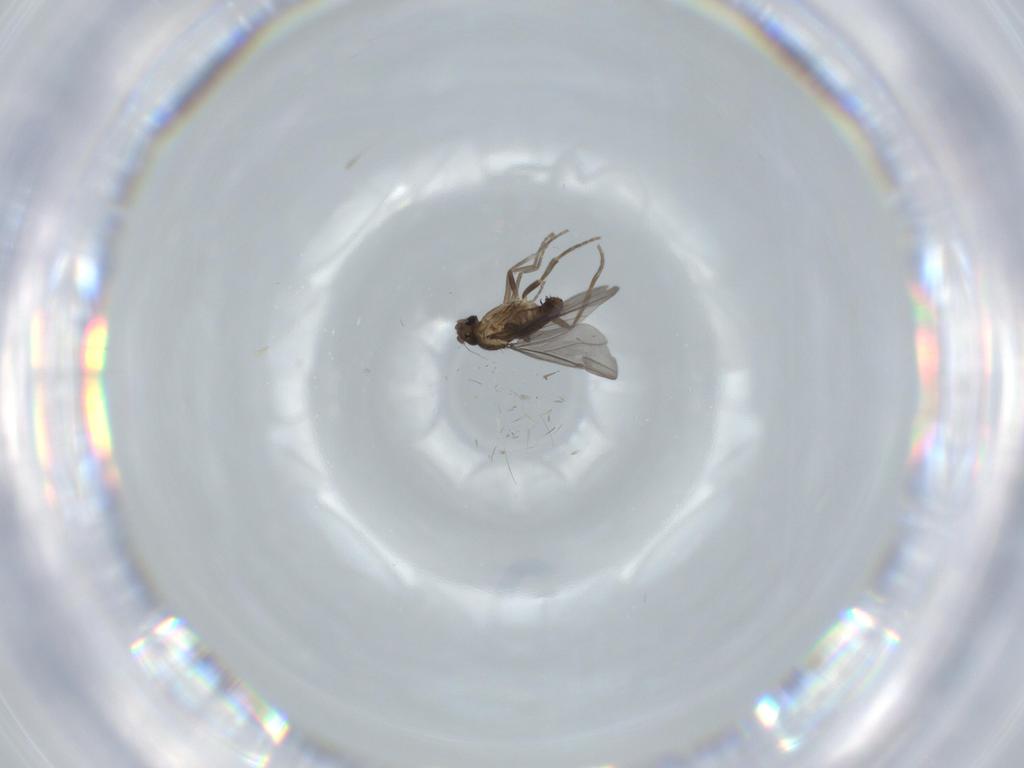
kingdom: Animalia
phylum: Arthropoda
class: Insecta
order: Diptera
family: Phoridae
